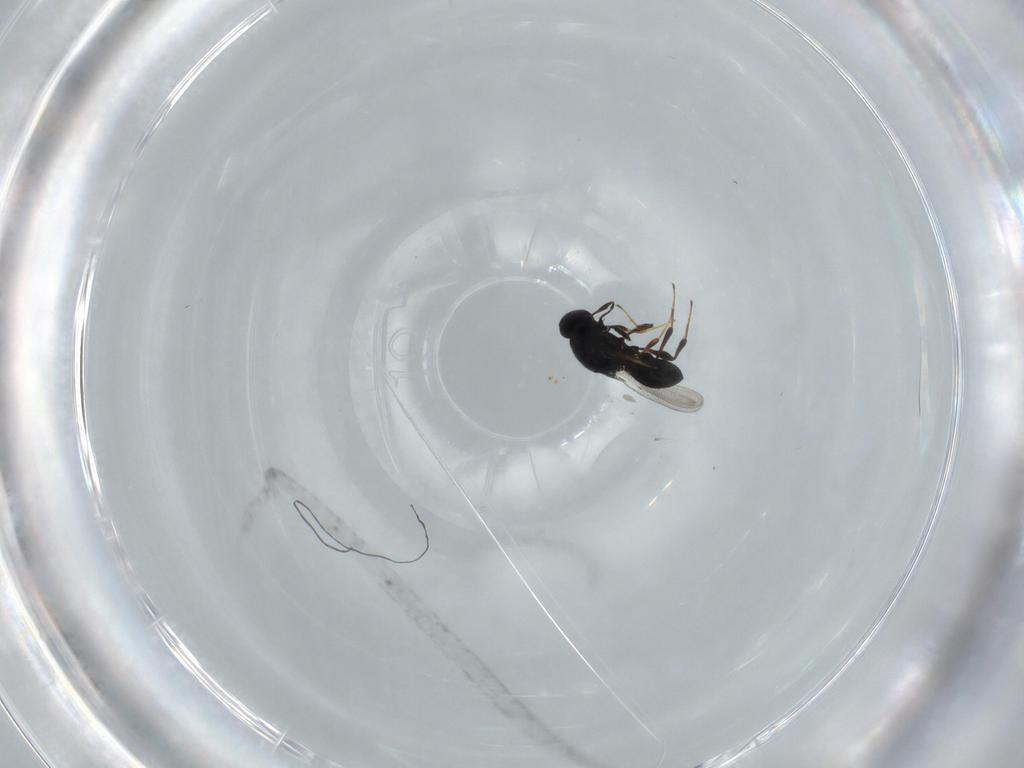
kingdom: Animalia
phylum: Arthropoda
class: Insecta
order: Hymenoptera
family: Platygastridae
